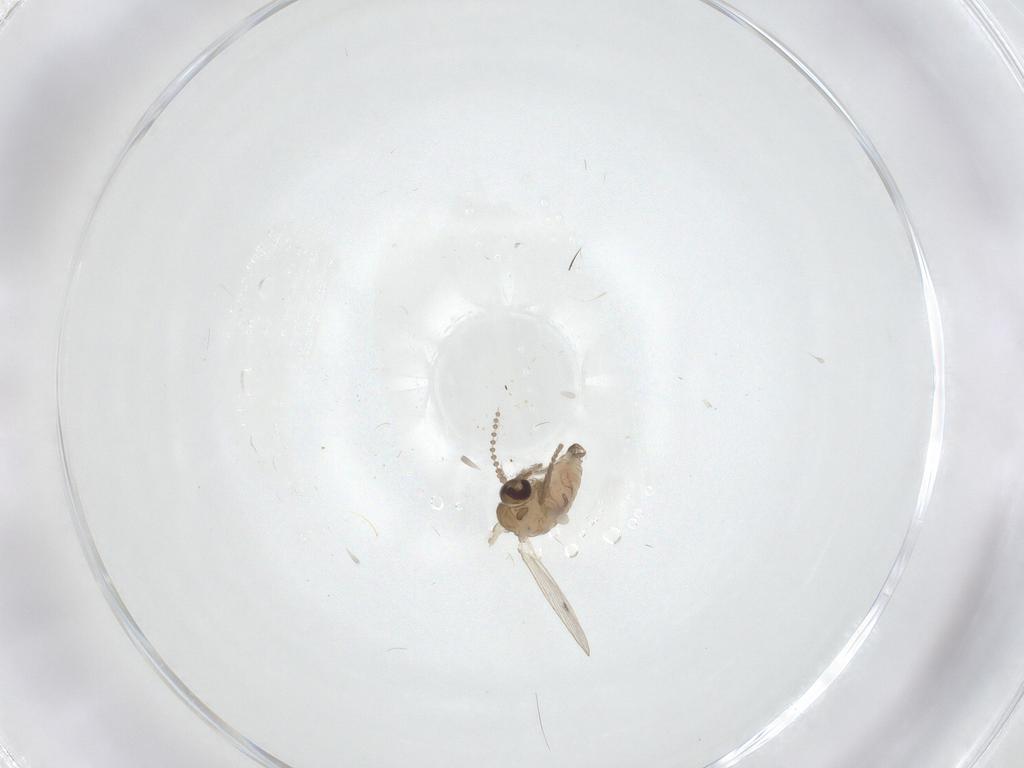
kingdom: Animalia
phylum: Arthropoda
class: Insecta
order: Diptera
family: Psychodidae
